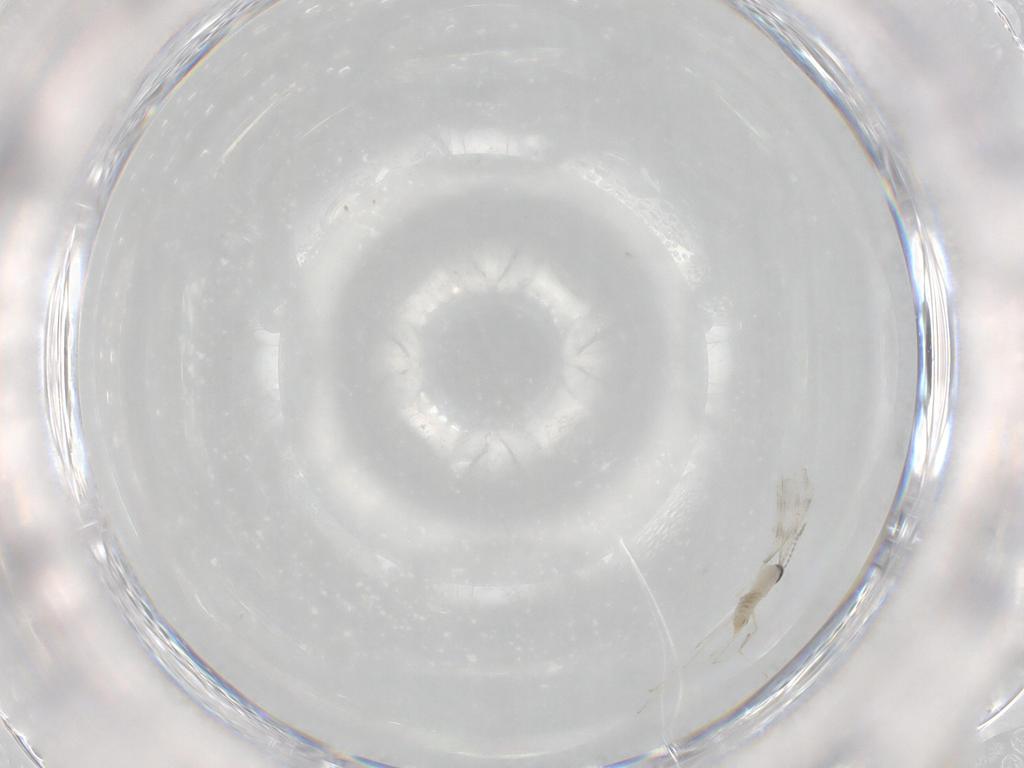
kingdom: Animalia
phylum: Arthropoda
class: Insecta
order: Diptera
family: Cecidomyiidae
